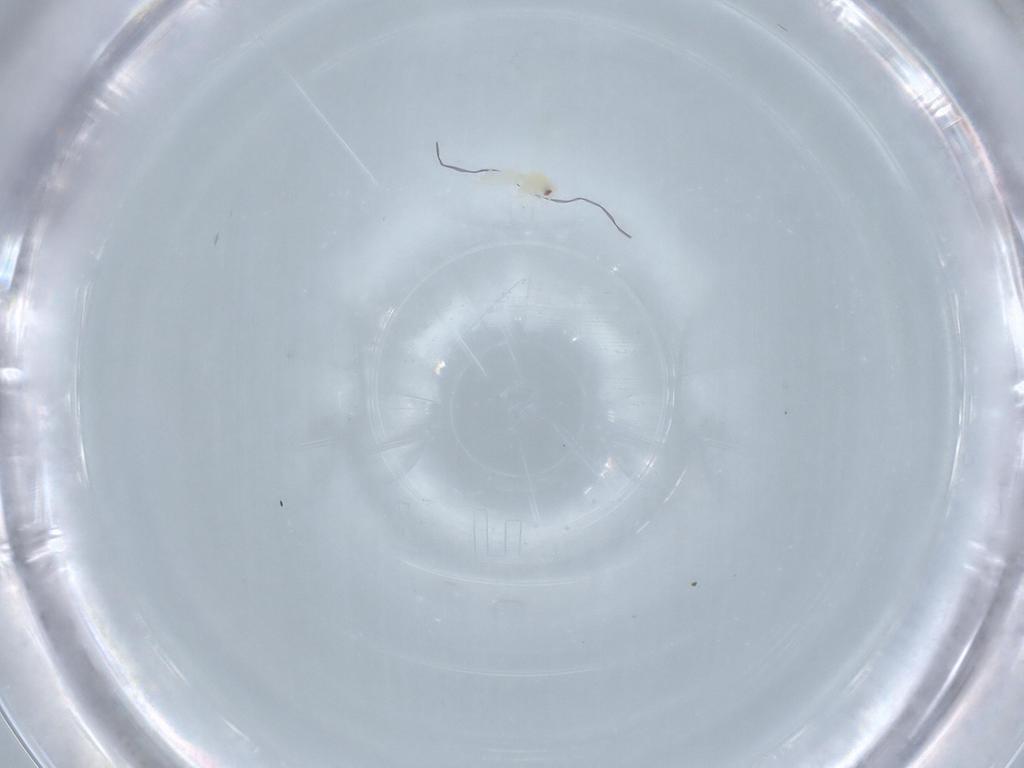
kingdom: Animalia
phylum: Arthropoda
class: Insecta
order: Hemiptera
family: Aleyrodidae
